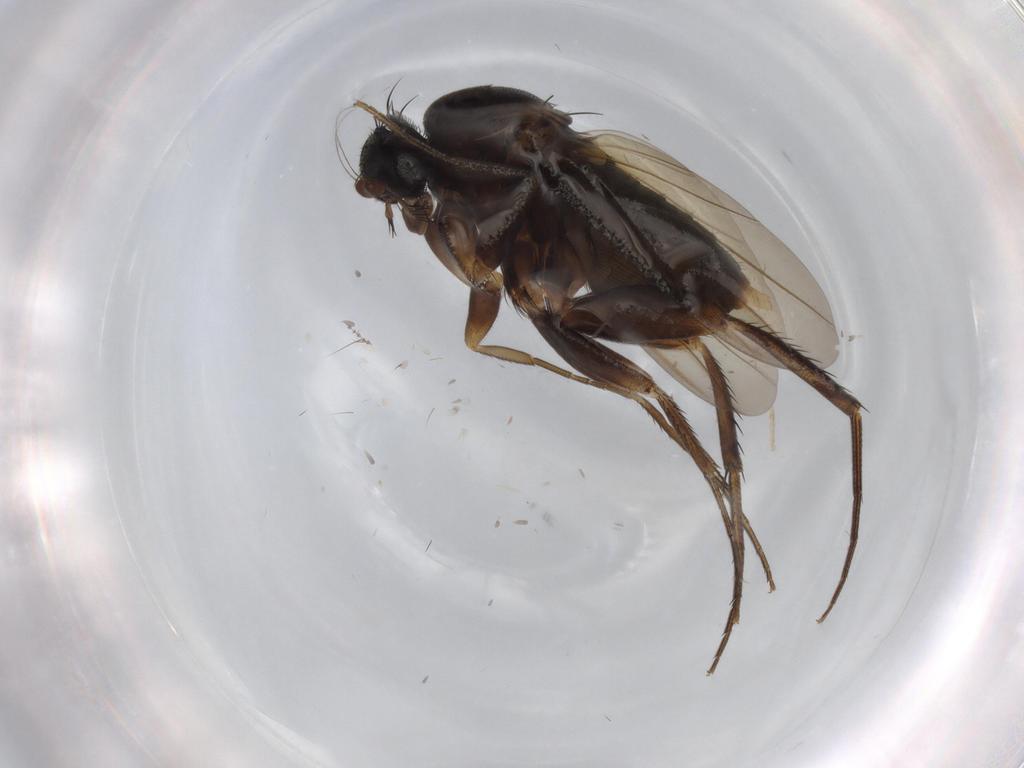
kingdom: Animalia
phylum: Arthropoda
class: Insecta
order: Diptera
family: Phoridae
